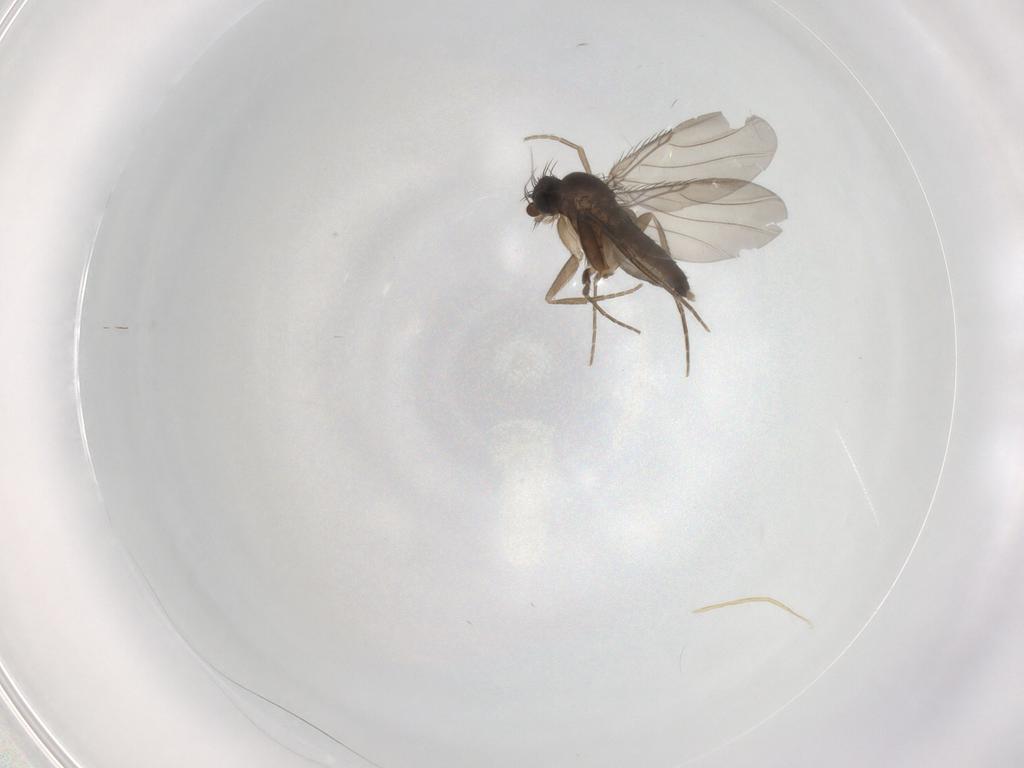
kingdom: Animalia
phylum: Arthropoda
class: Insecta
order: Diptera
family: Phoridae
